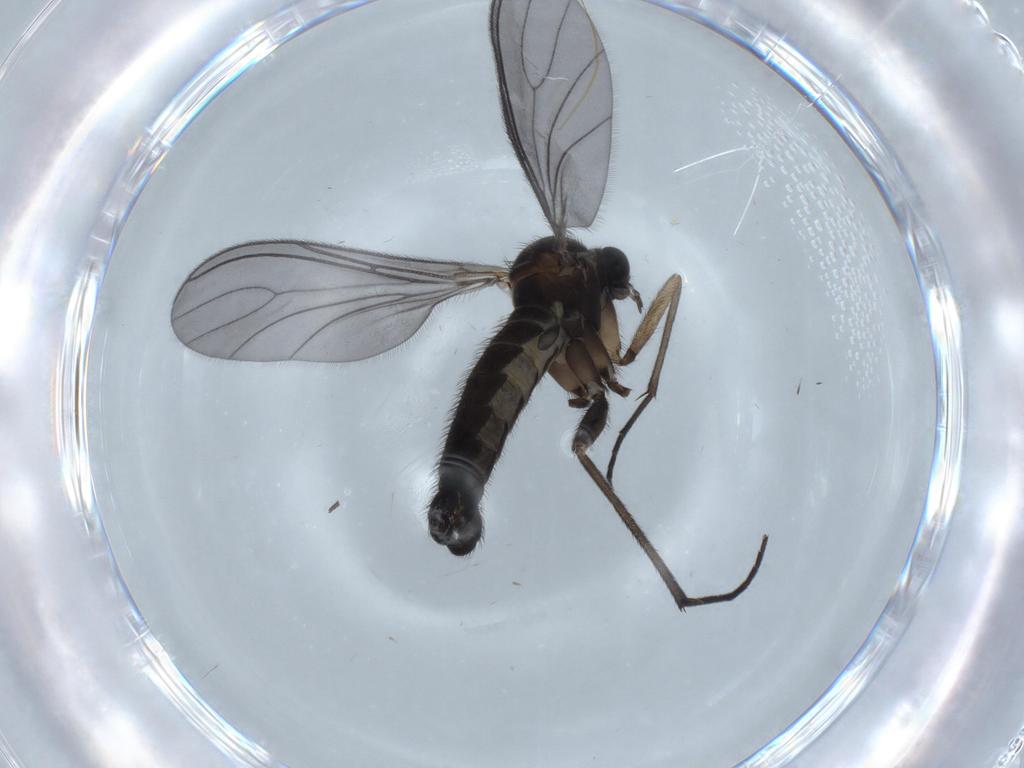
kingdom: Animalia
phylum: Arthropoda
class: Insecta
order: Diptera
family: Sciaridae
